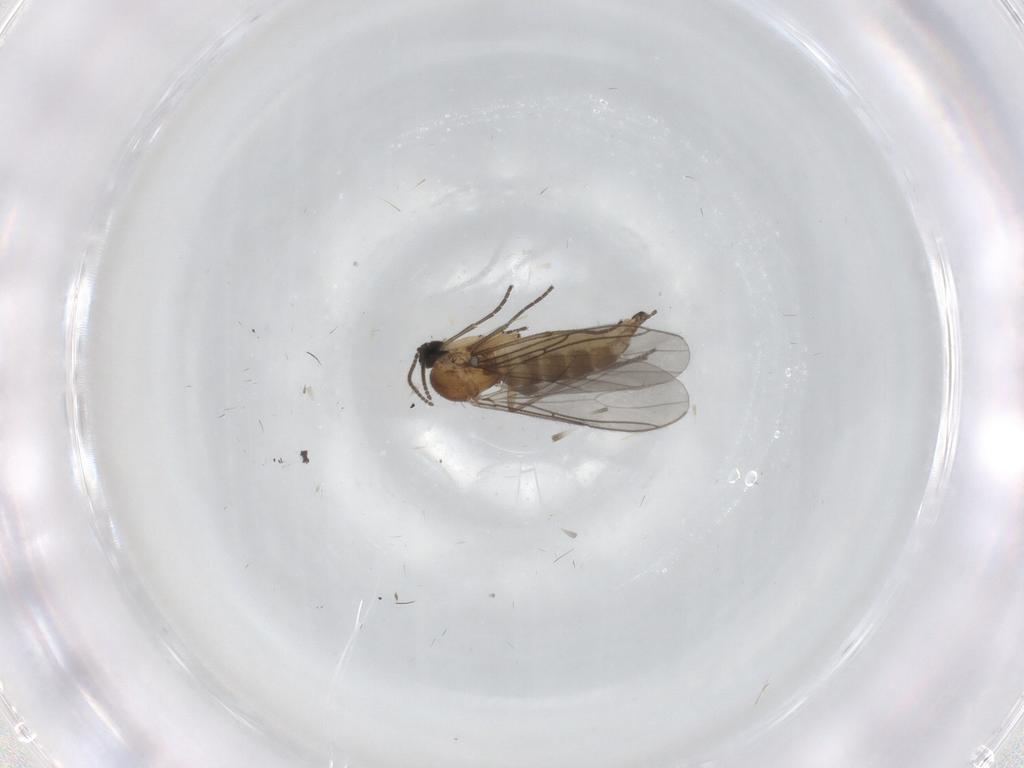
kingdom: Animalia
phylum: Arthropoda
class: Insecta
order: Diptera
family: Sciaridae
